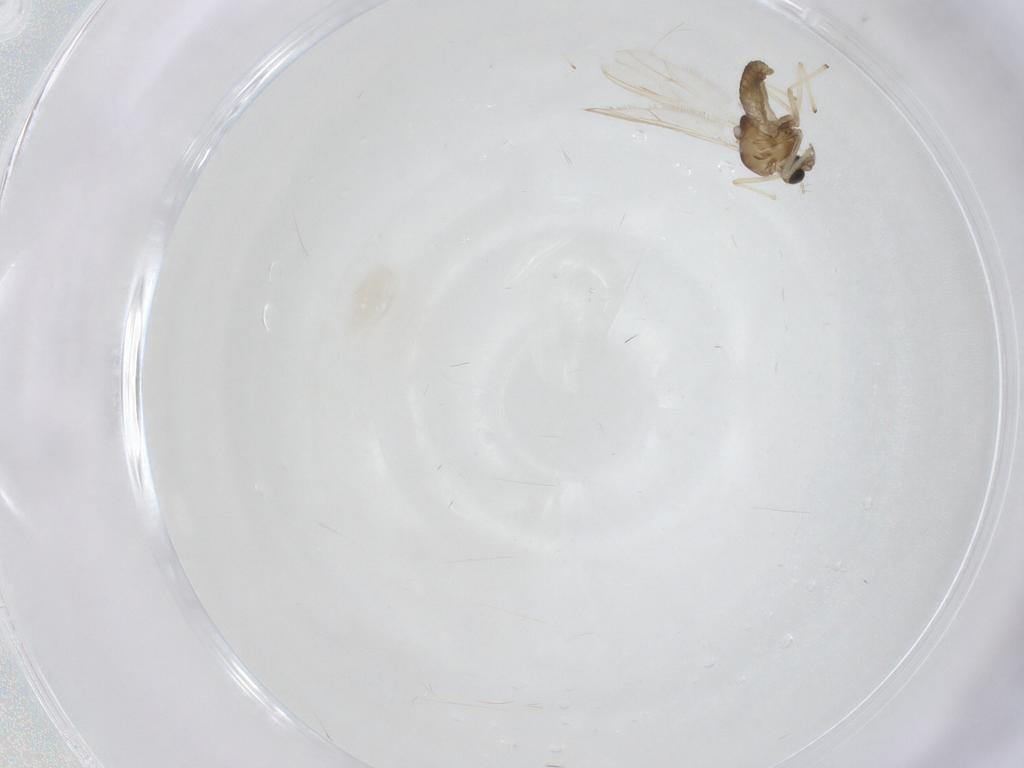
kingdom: Animalia
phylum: Arthropoda
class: Insecta
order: Diptera
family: Chironomidae
